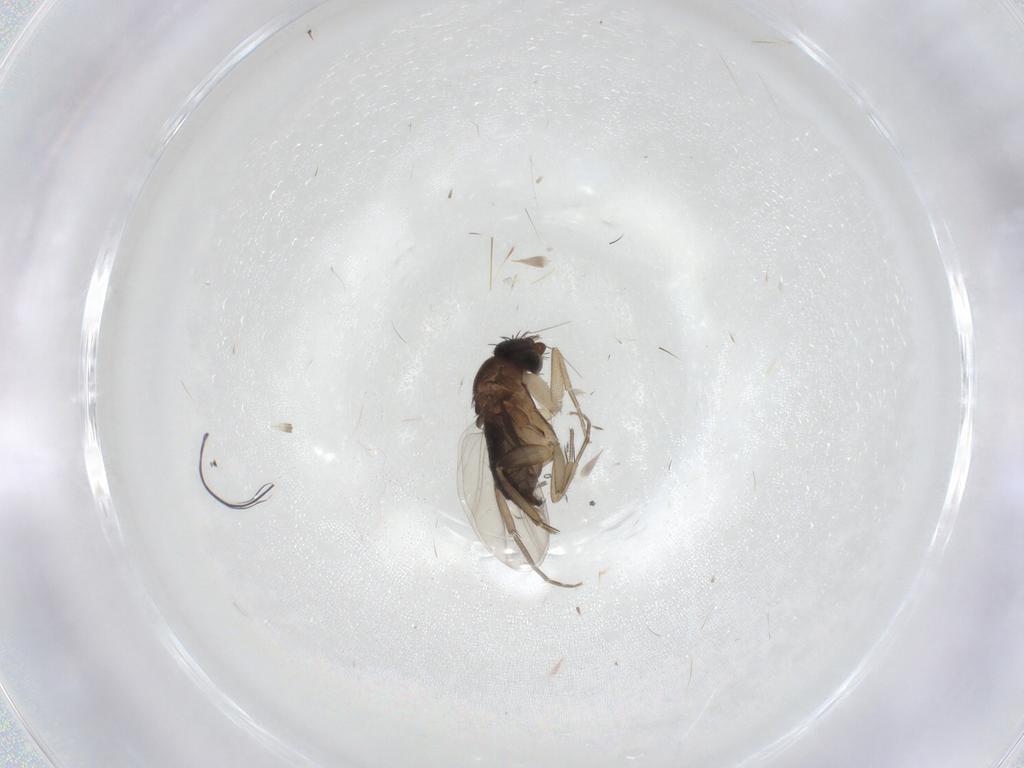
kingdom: Animalia
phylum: Arthropoda
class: Insecta
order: Diptera
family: Phoridae
